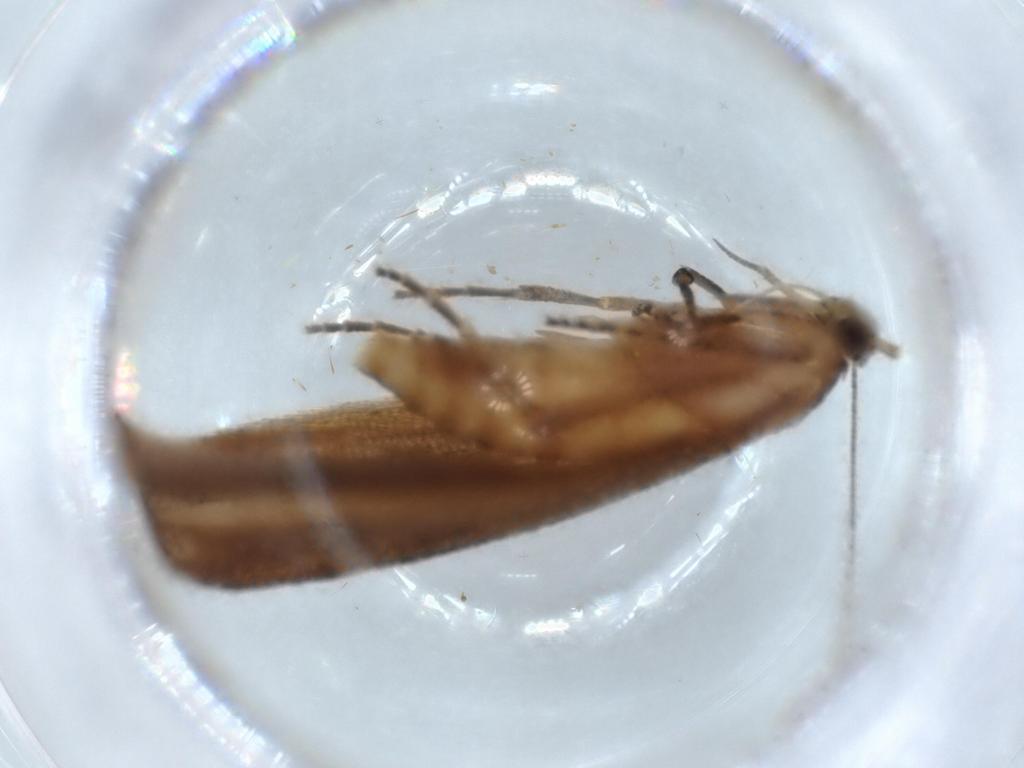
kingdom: Animalia
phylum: Arthropoda
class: Insecta
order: Lepidoptera
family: Stathmopodidae
